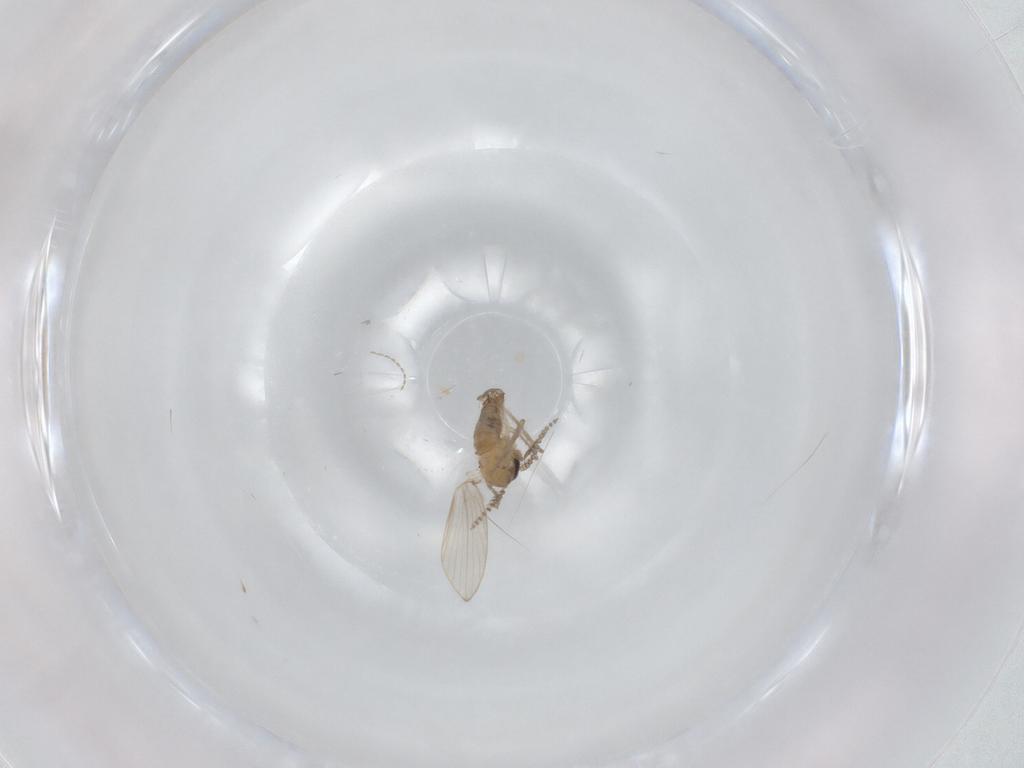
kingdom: Animalia
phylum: Arthropoda
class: Insecta
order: Diptera
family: Psychodidae
